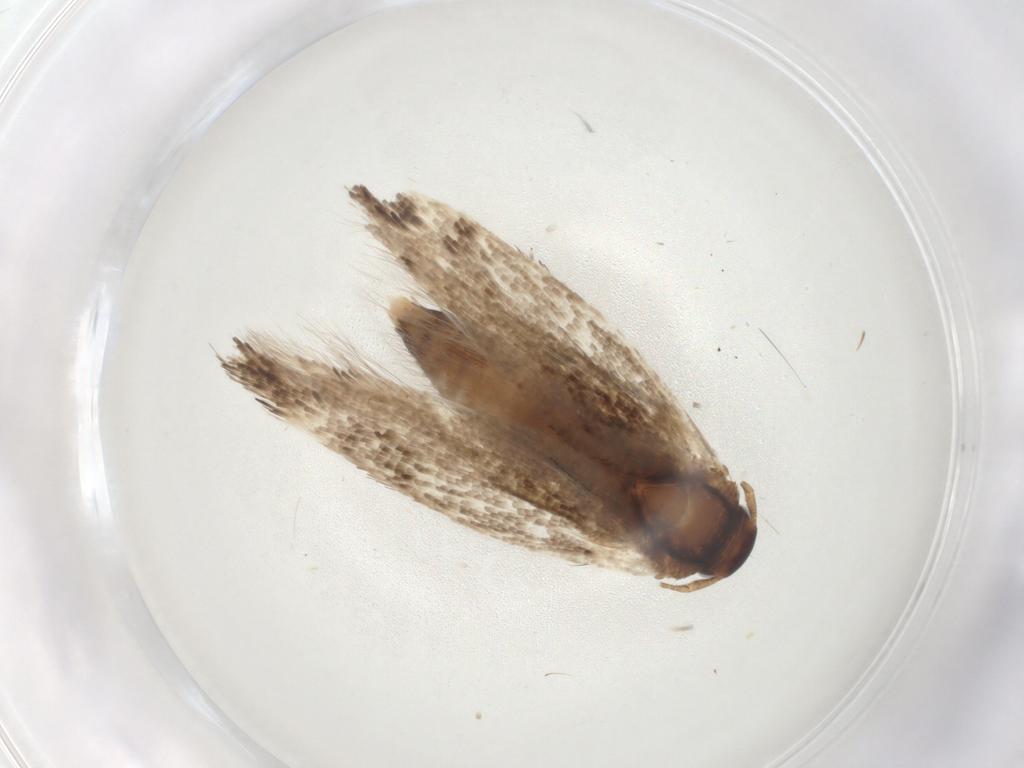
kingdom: Animalia
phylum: Arthropoda
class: Insecta
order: Lepidoptera
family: Momphidae
